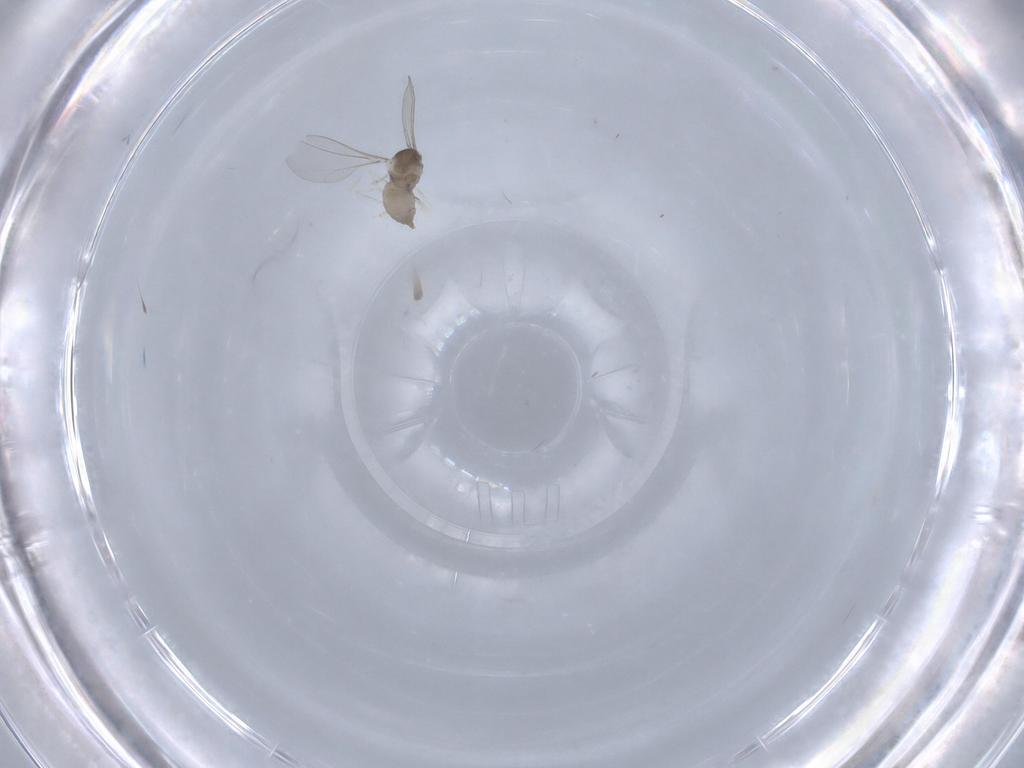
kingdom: Animalia
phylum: Arthropoda
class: Insecta
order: Diptera
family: Cecidomyiidae
